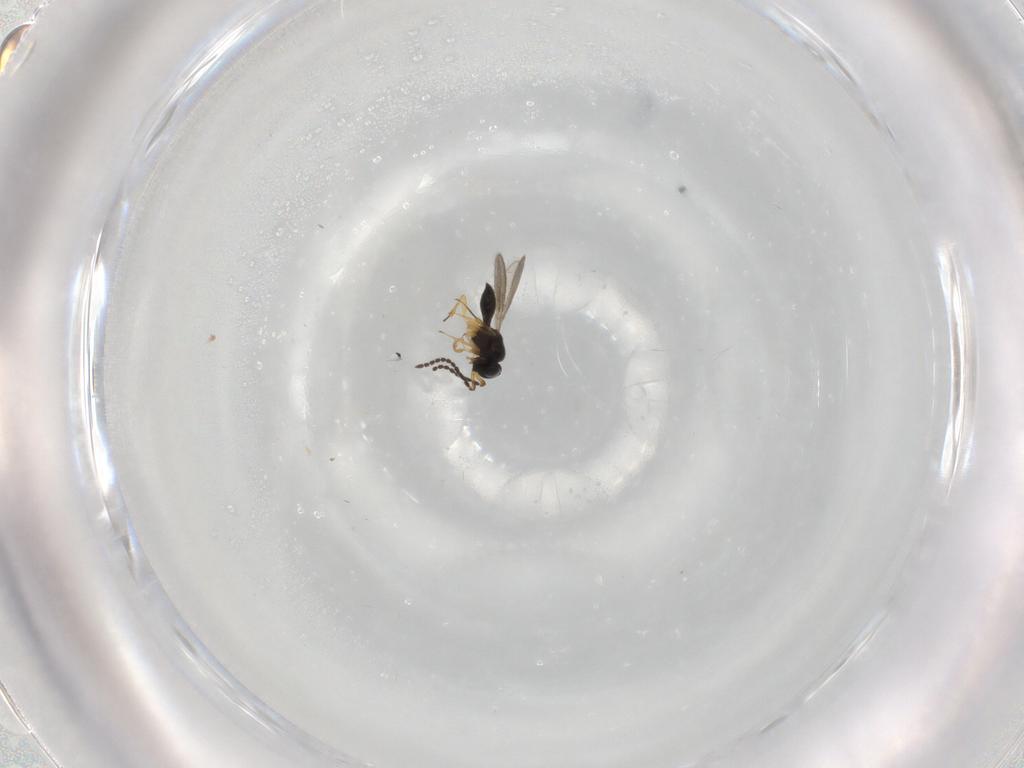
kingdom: Animalia
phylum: Arthropoda
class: Insecta
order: Hymenoptera
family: Scelionidae
